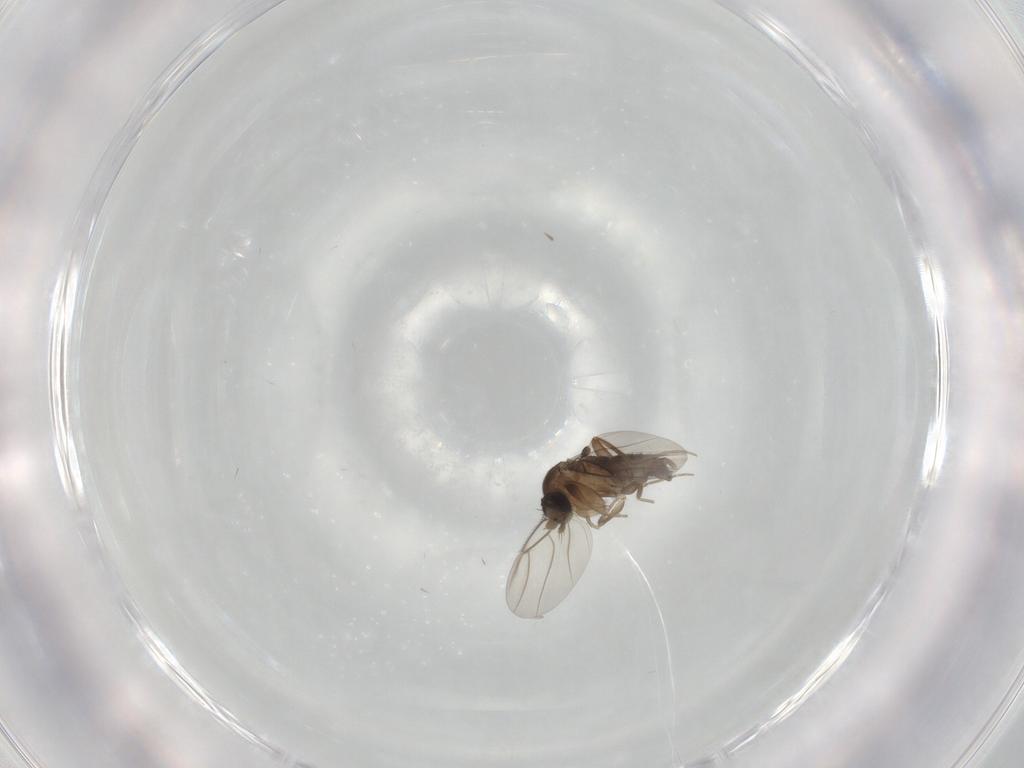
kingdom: Animalia
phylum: Arthropoda
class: Insecta
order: Diptera
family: Phoridae
